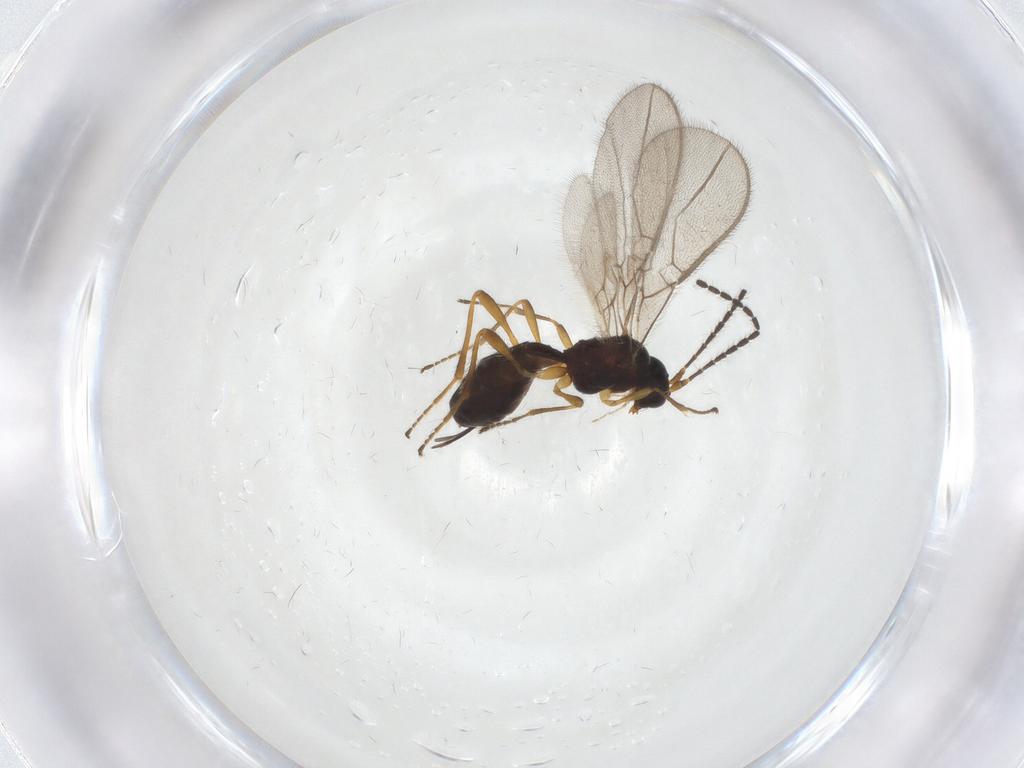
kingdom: Animalia
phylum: Arthropoda
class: Insecta
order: Hymenoptera
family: Braconidae
